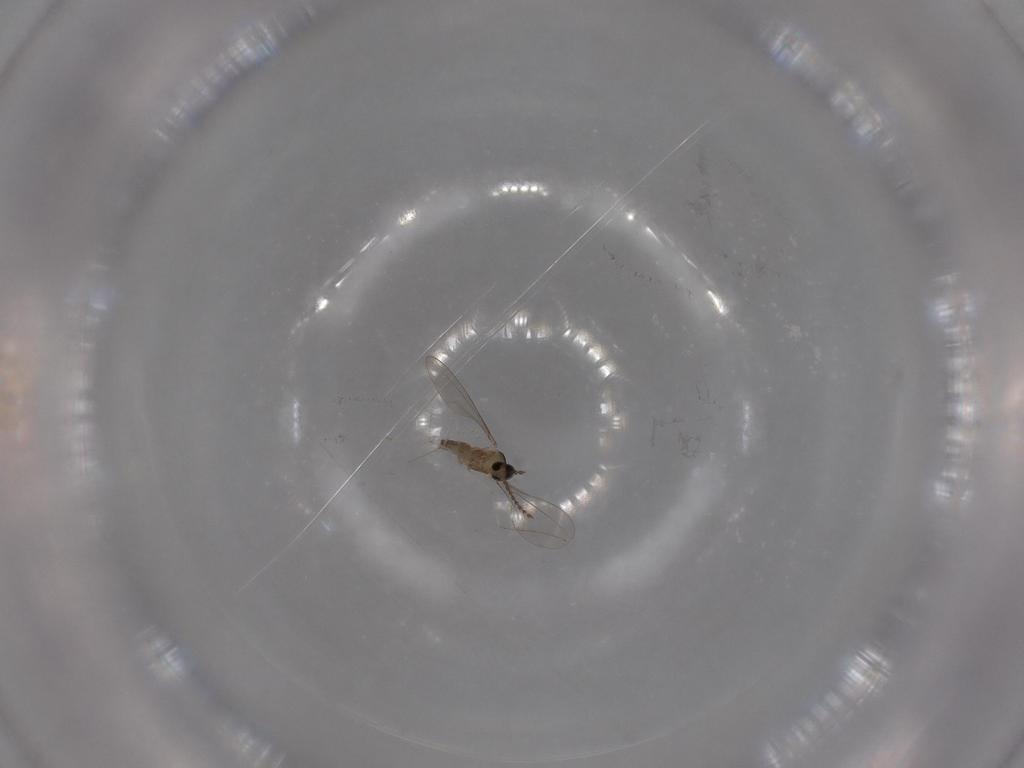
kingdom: Animalia
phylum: Arthropoda
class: Insecta
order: Diptera
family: Cecidomyiidae
